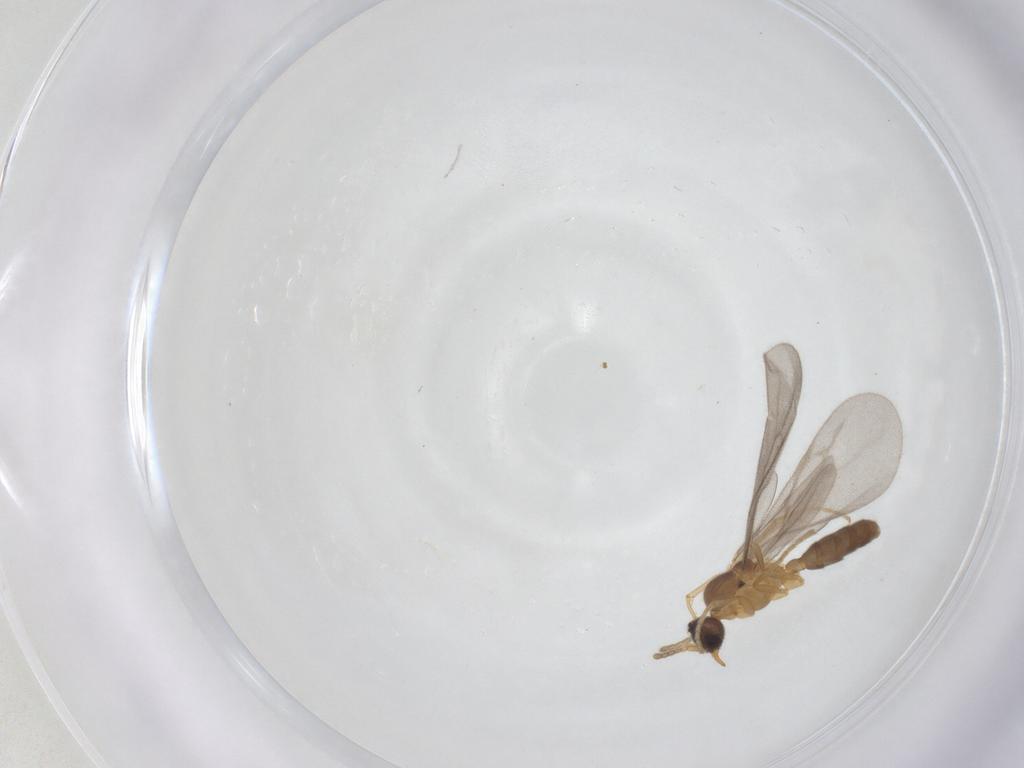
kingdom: Animalia
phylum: Arthropoda
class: Insecta
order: Hymenoptera
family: Formicidae
